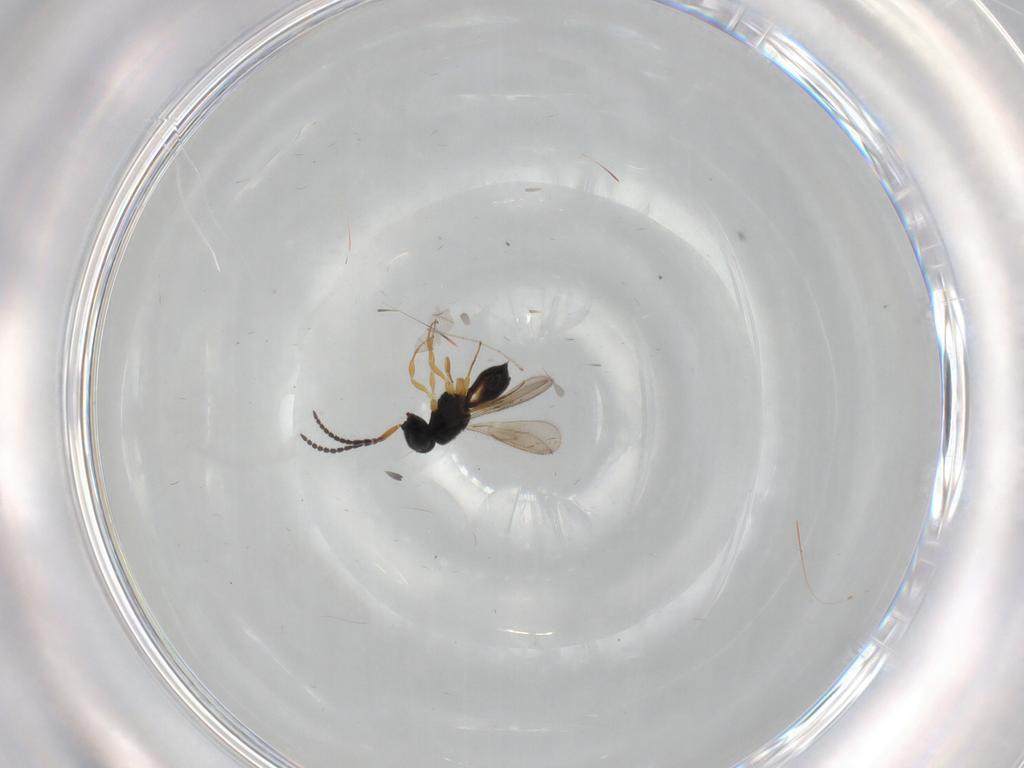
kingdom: Animalia
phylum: Arthropoda
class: Insecta
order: Hymenoptera
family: Scelionidae
